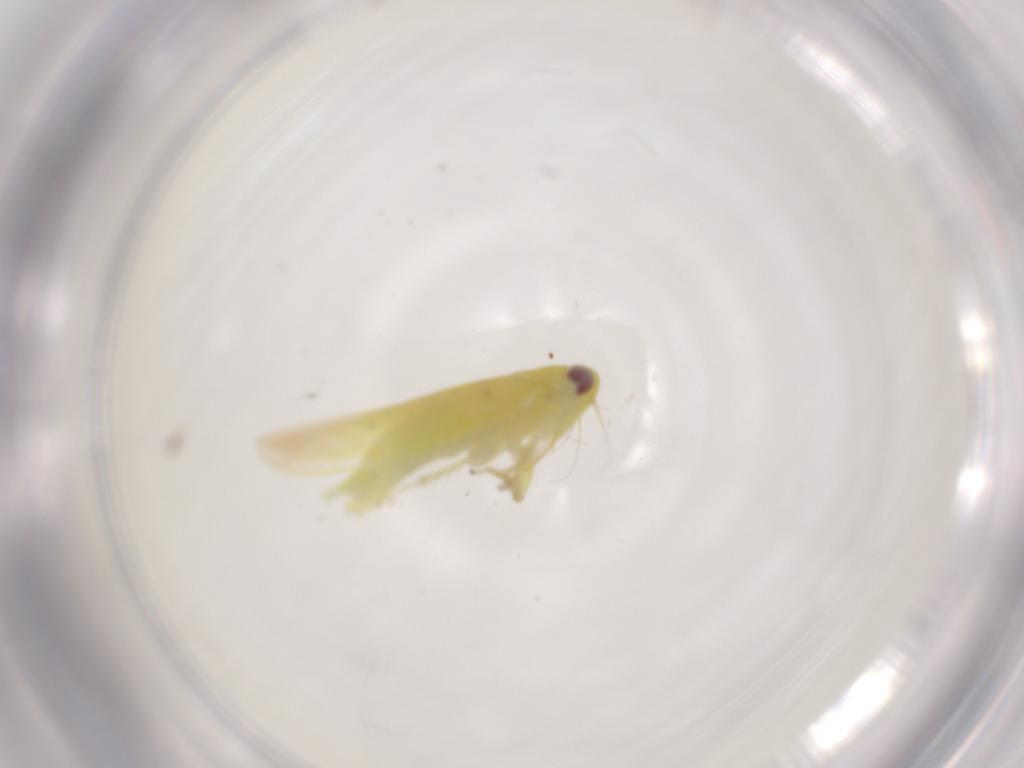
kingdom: Animalia
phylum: Arthropoda
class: Insecta
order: Hemiptera
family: Cicadellidae
